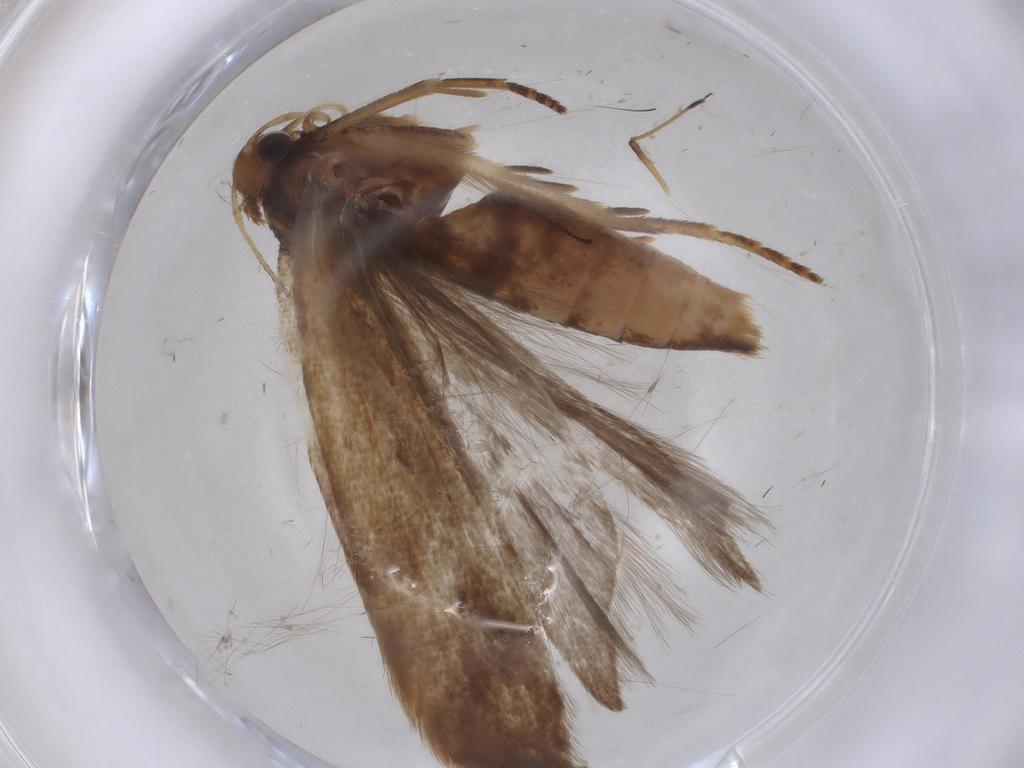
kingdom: Animalia
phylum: Arthropoda
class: Insecta
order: Lepidoptera
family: Gelechiidae
